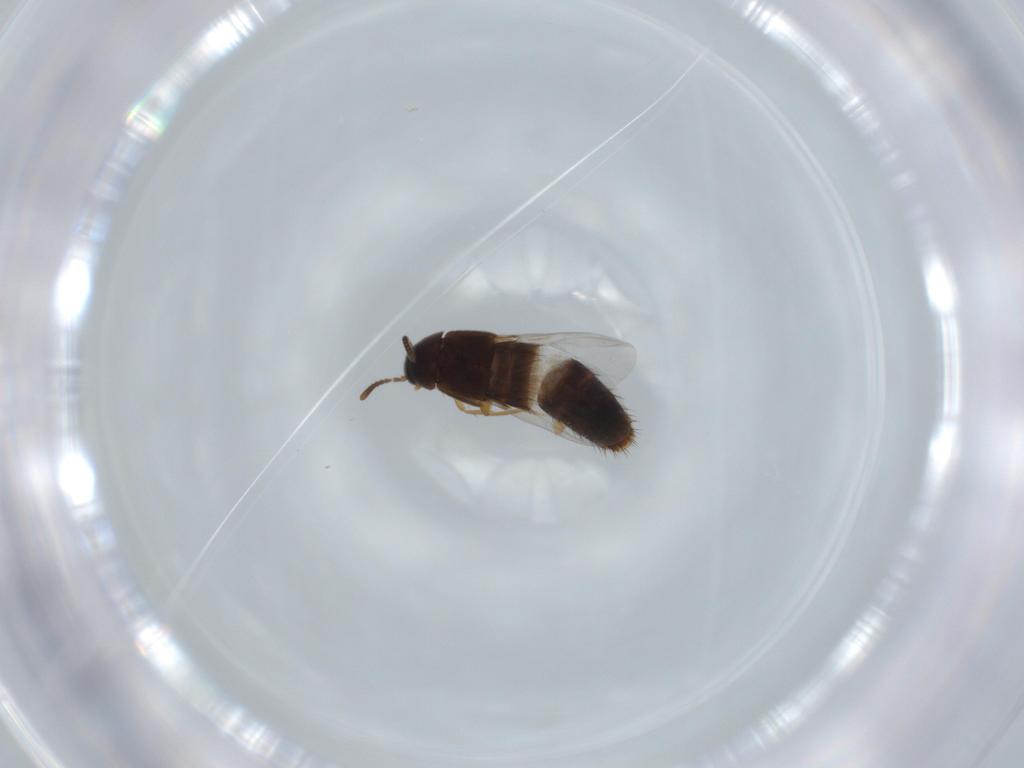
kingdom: Animalia
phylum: Arthropoda
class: Insecta
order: Coleoptera
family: Staphylinidae
